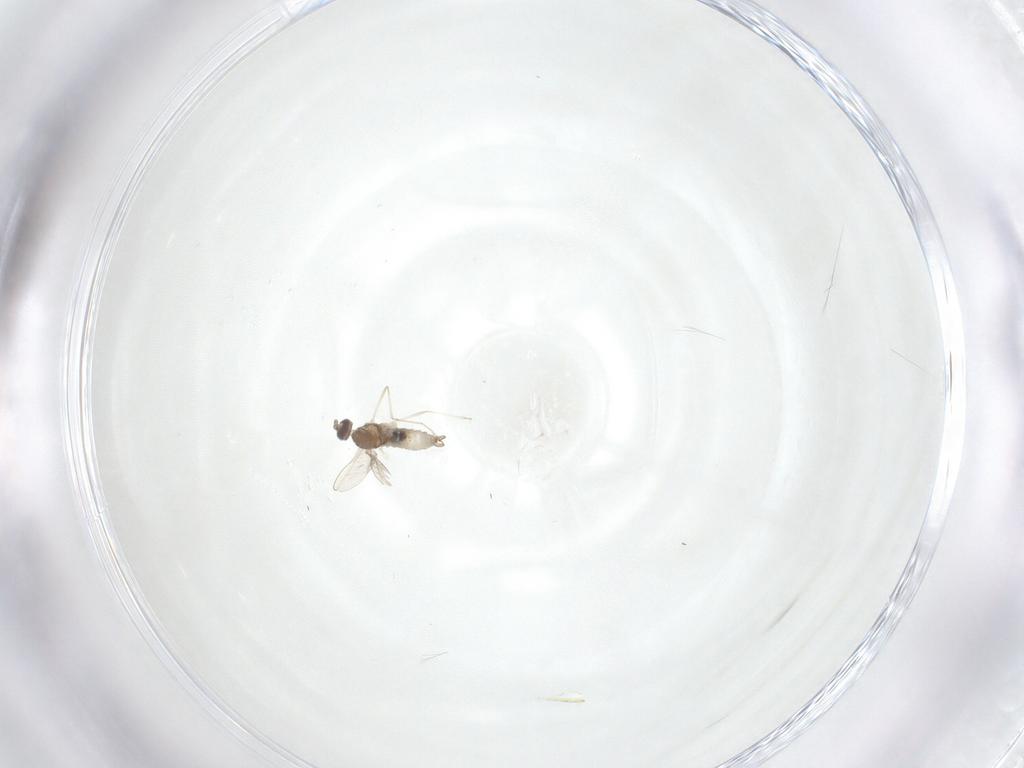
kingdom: Animalia
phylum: Arthropoda
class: Insecta
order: Diptera
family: Cecidomyiidae
